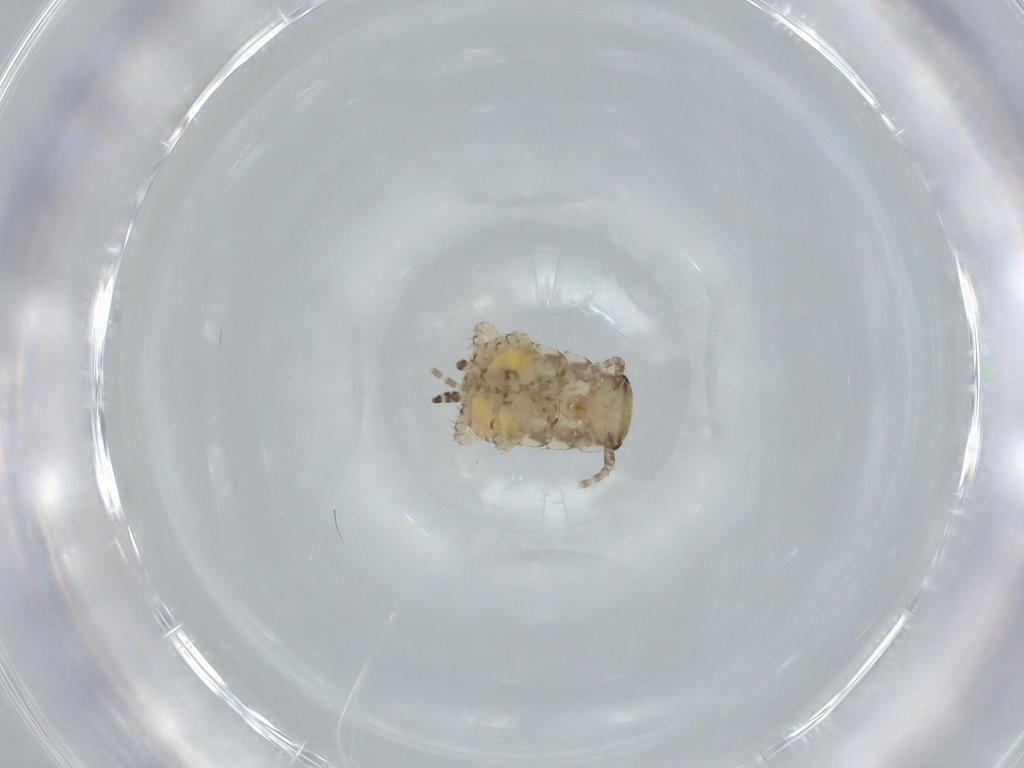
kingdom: Animalia
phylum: Arthropoda
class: Insecta
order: Blattodea
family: Ectobiidae
